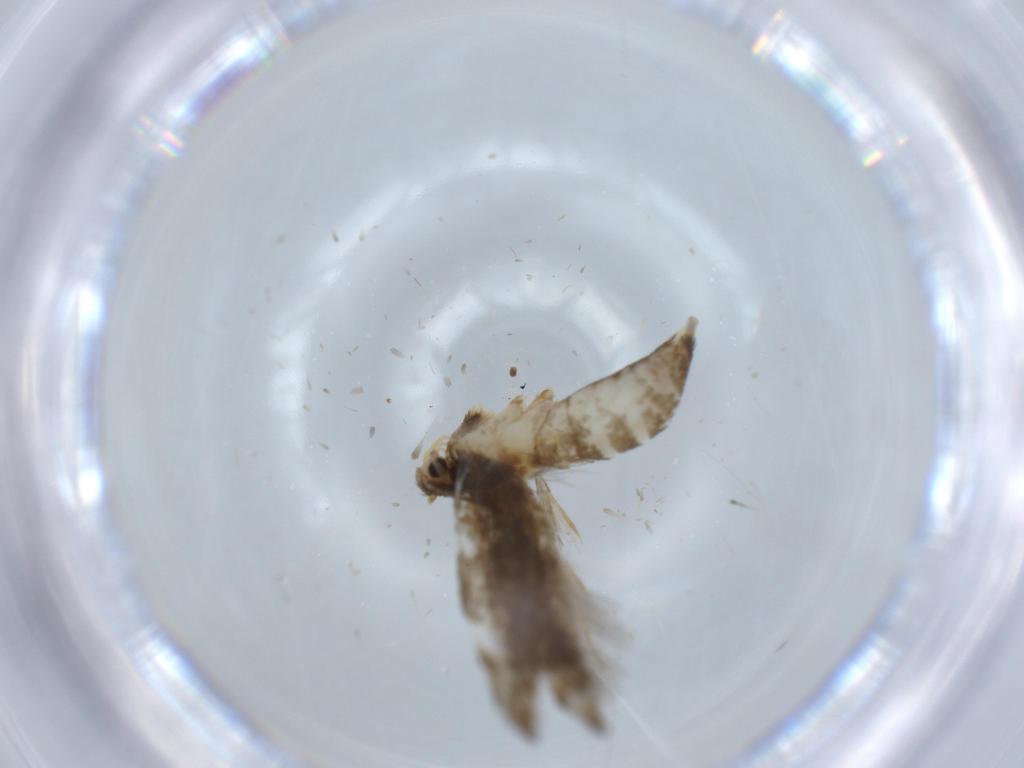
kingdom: Animalia
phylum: Arthropoda
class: Insecta
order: Lepidoptera
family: Tineidae
